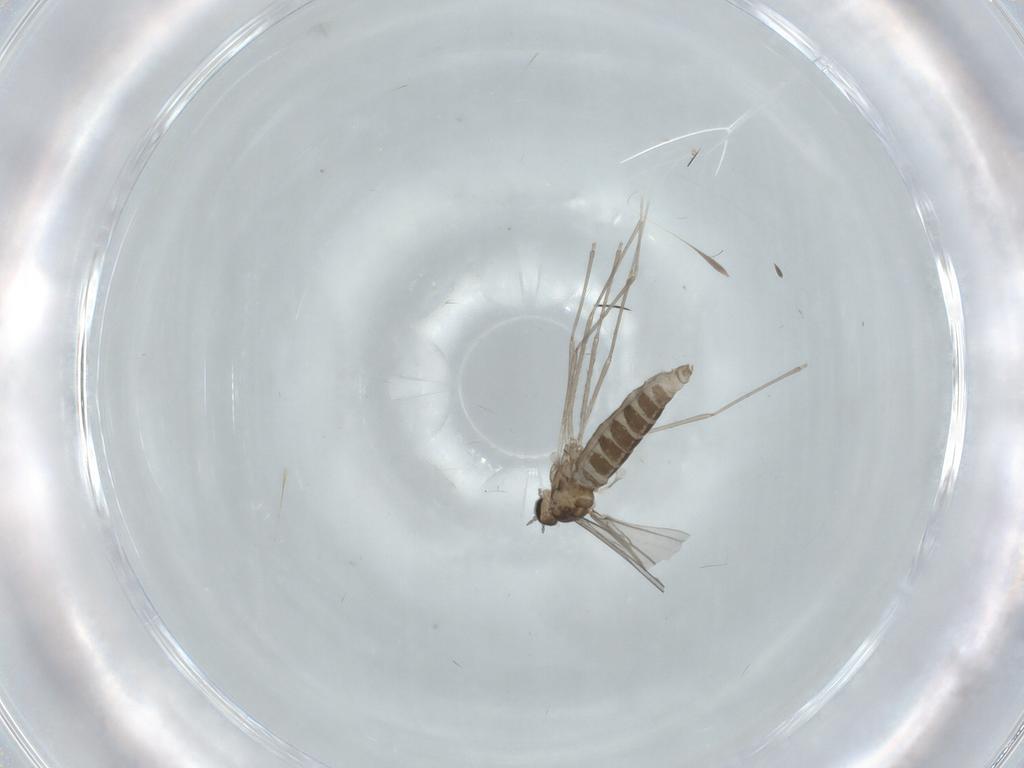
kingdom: Animalia
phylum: Arthropoda
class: Insecta
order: Diptera
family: Cecidomyiidae
